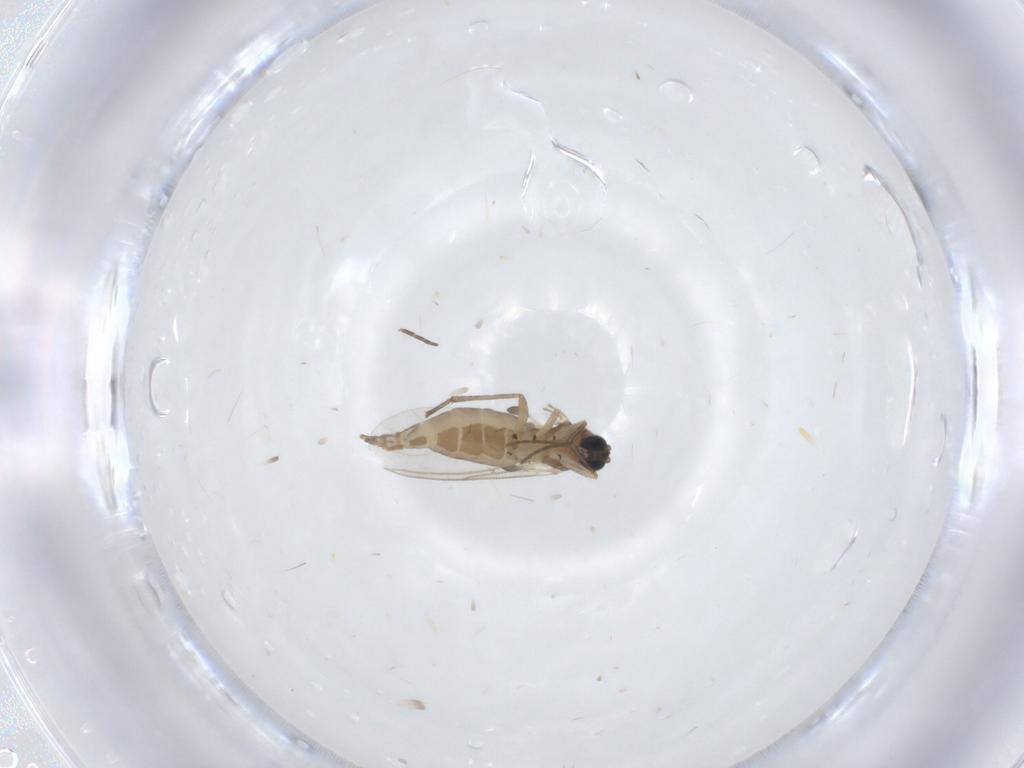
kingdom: Animalia
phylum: Arthropoda
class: Insecta
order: Diptera
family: Sciaridae
